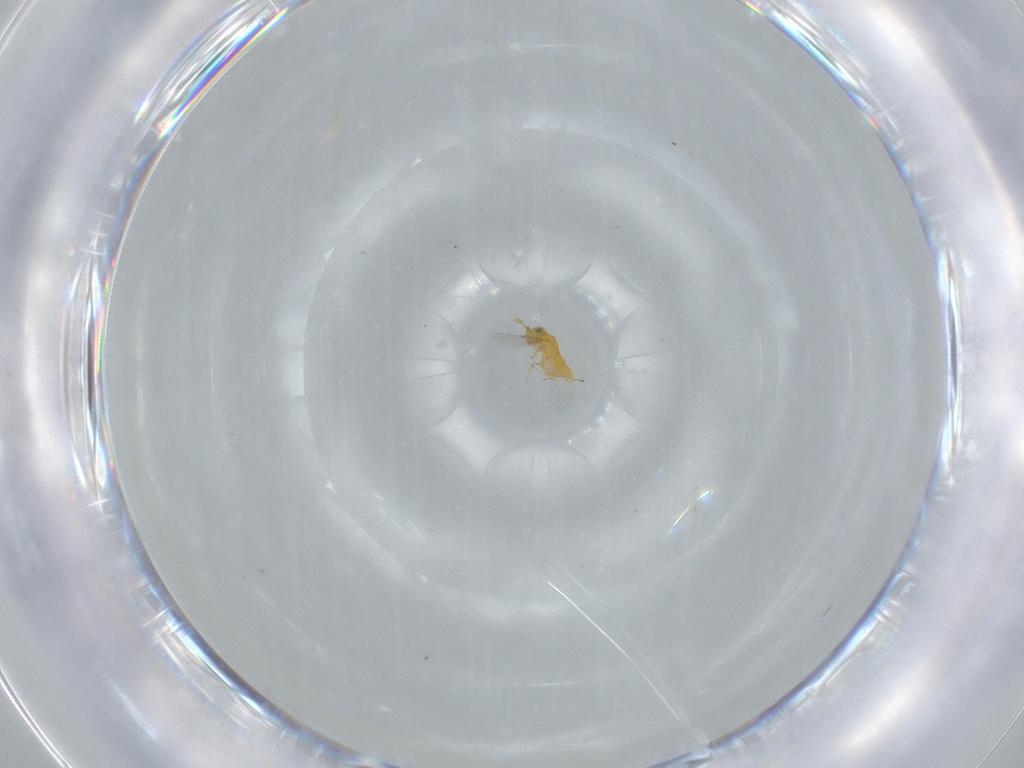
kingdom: Animalia
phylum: Arthropoda
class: Insecta
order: Hymenoptera
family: Encyrtidae
